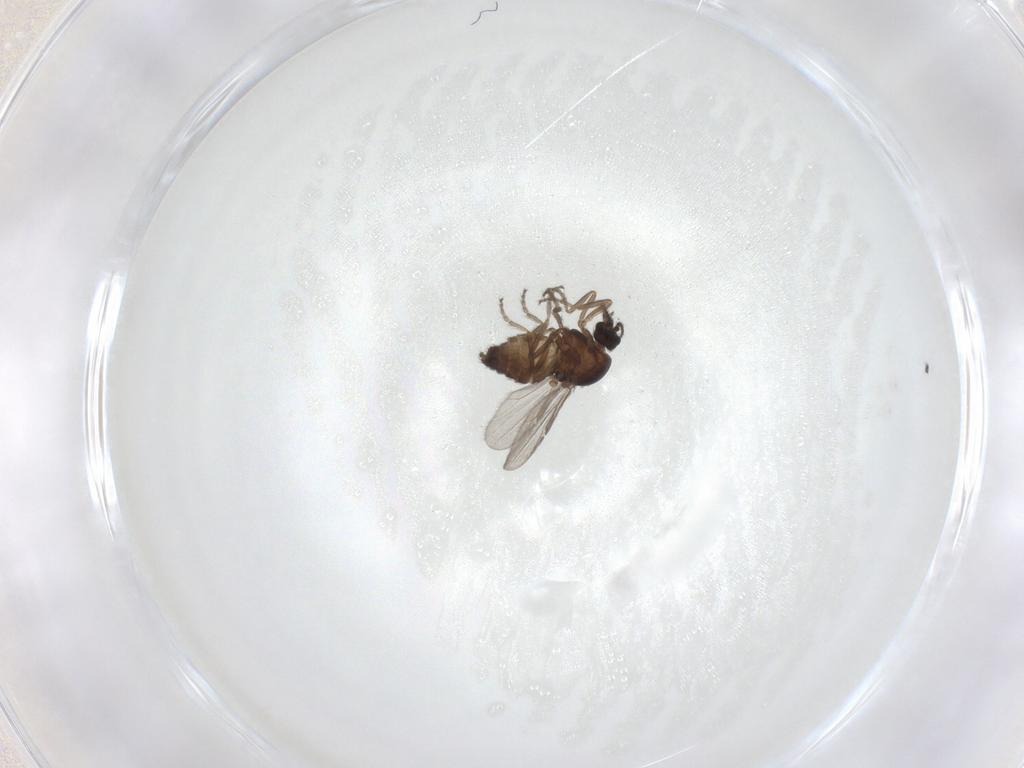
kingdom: Animalia
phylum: Arthropoda
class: Insecta
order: Diptera
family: Ceratopogonidae
